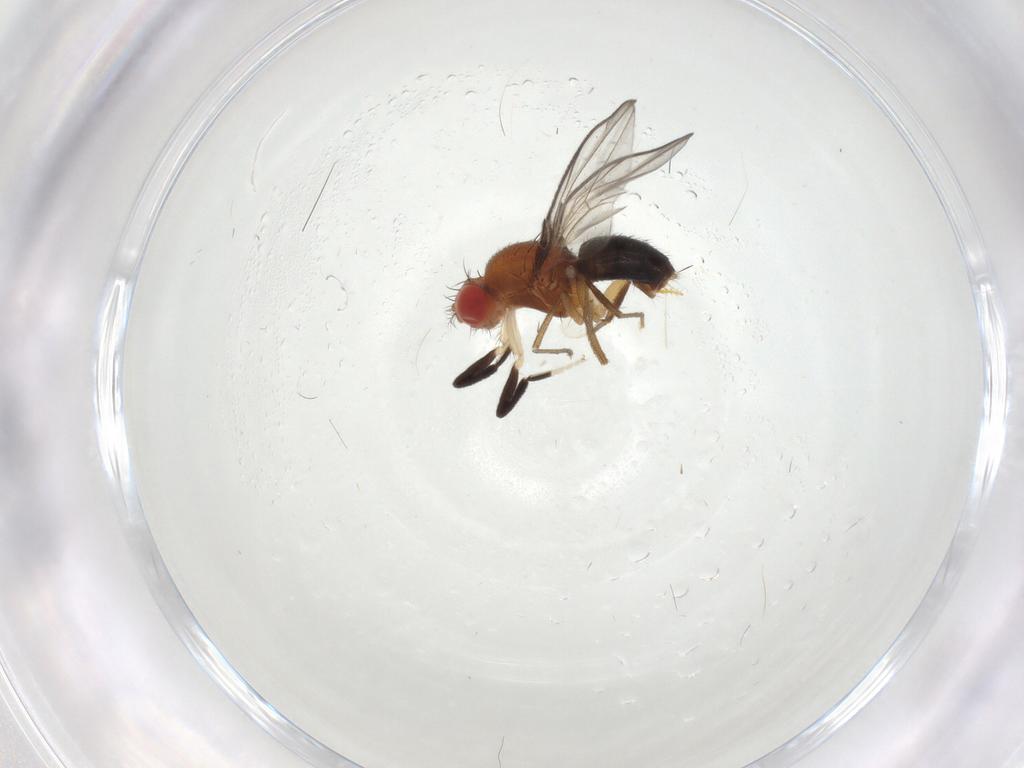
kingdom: Animalia
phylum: Arthropoda
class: Insecta
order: Diptera
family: Drosophilidae
